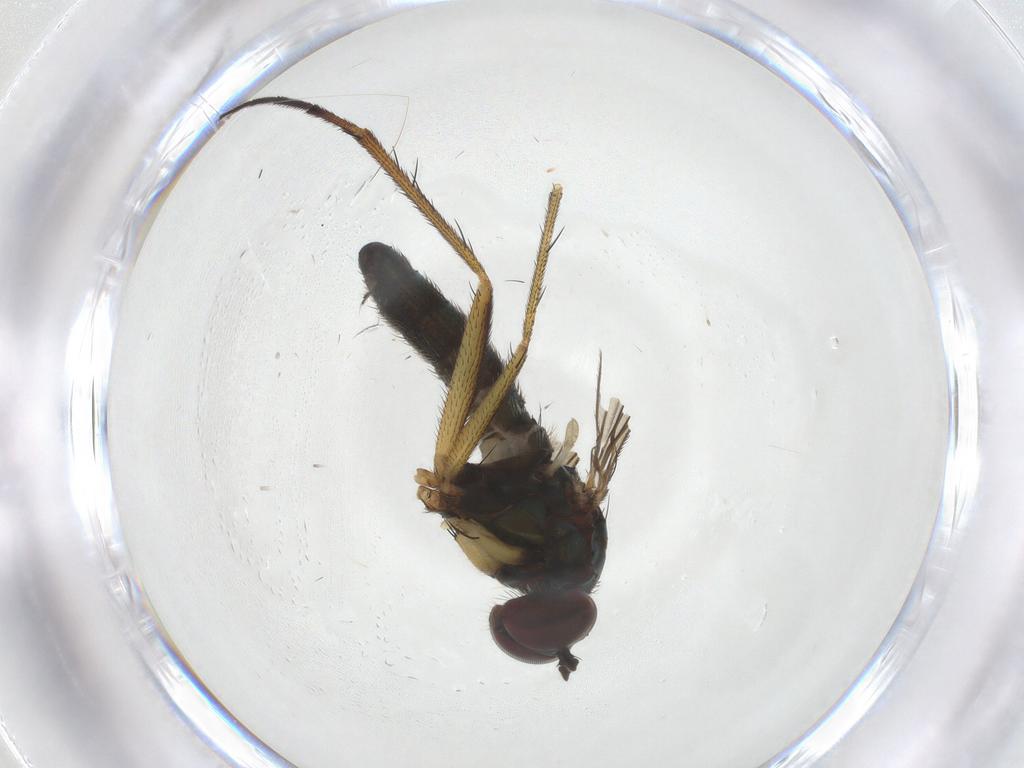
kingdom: Animalia
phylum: Arthropoda
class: Insecta
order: Diptera
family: Dolichopodidae
